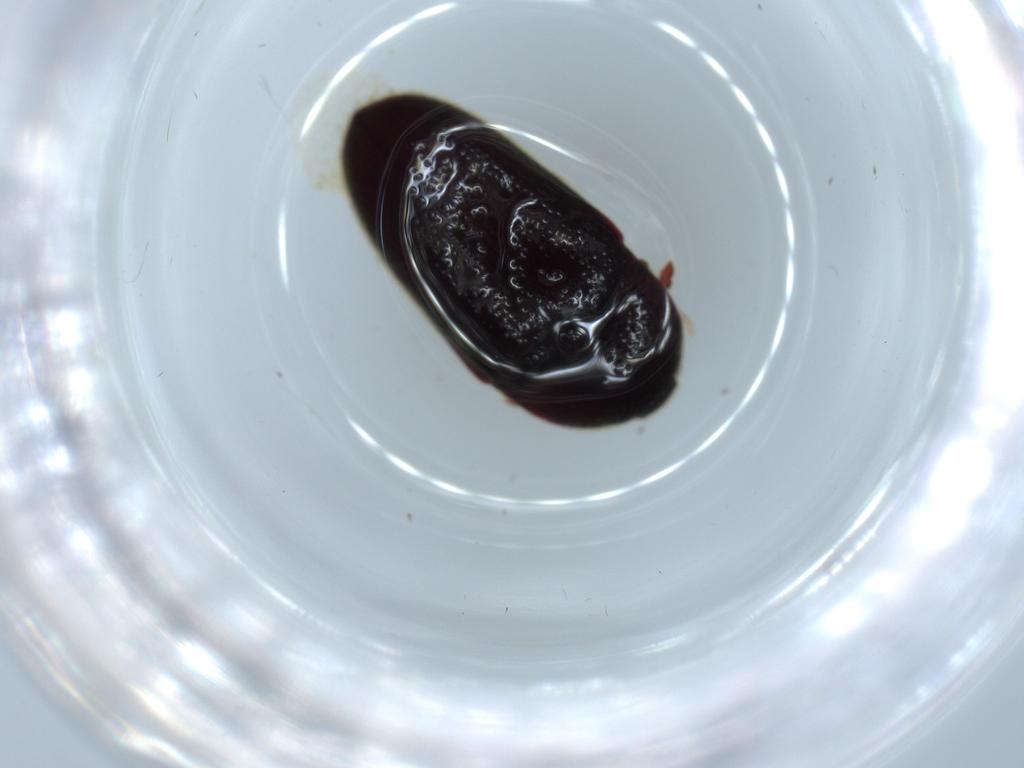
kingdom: Animalia
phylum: Arthropoda
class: Insecta
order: Coleoptera
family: Throscidae
